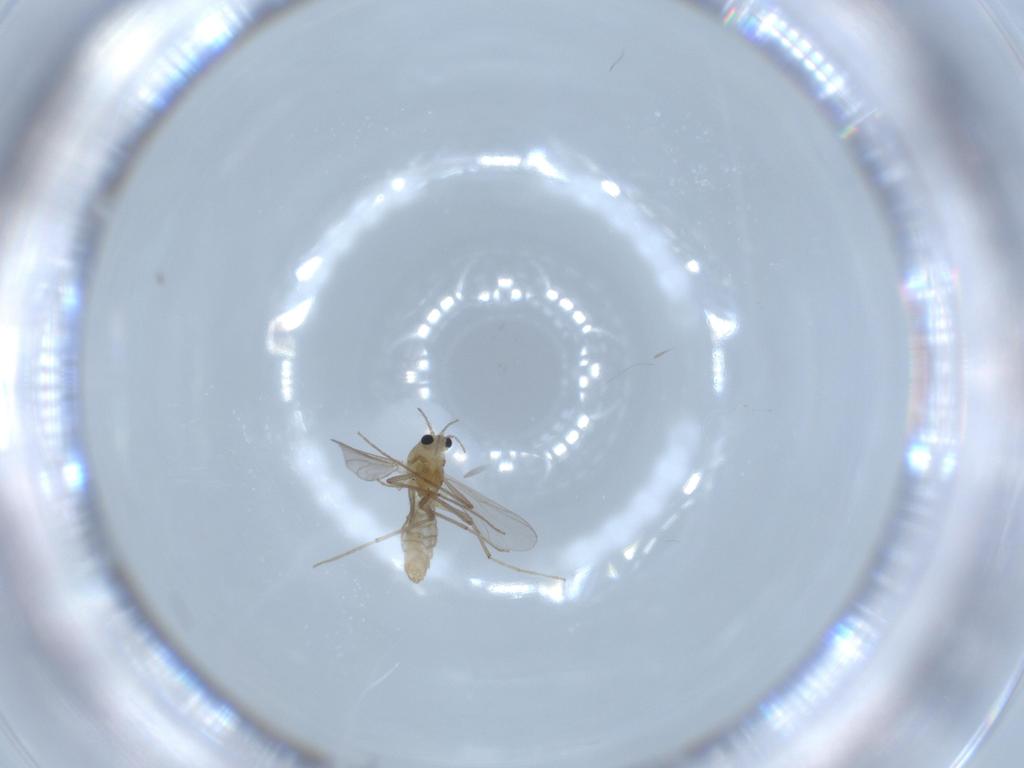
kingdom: Animalia
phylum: Arthropoda
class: Insecta
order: Diptera
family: Chironomidae
